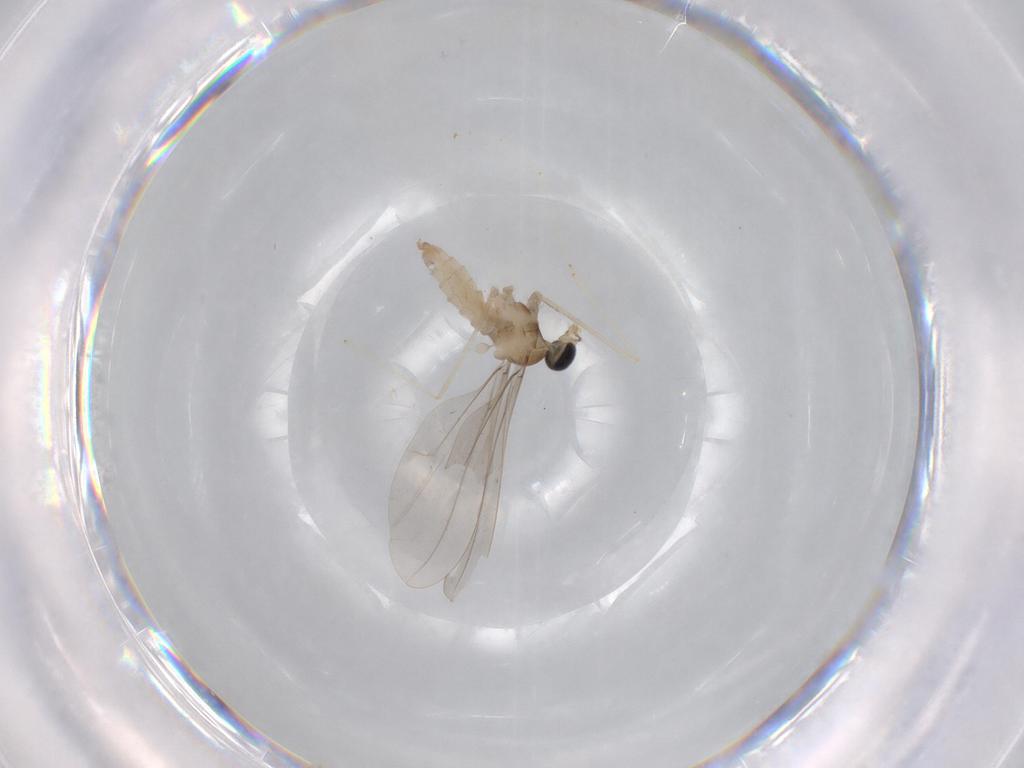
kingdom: Animalia
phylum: Arthropoda
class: Insecta
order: Diptera
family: Cecidomyiidae
